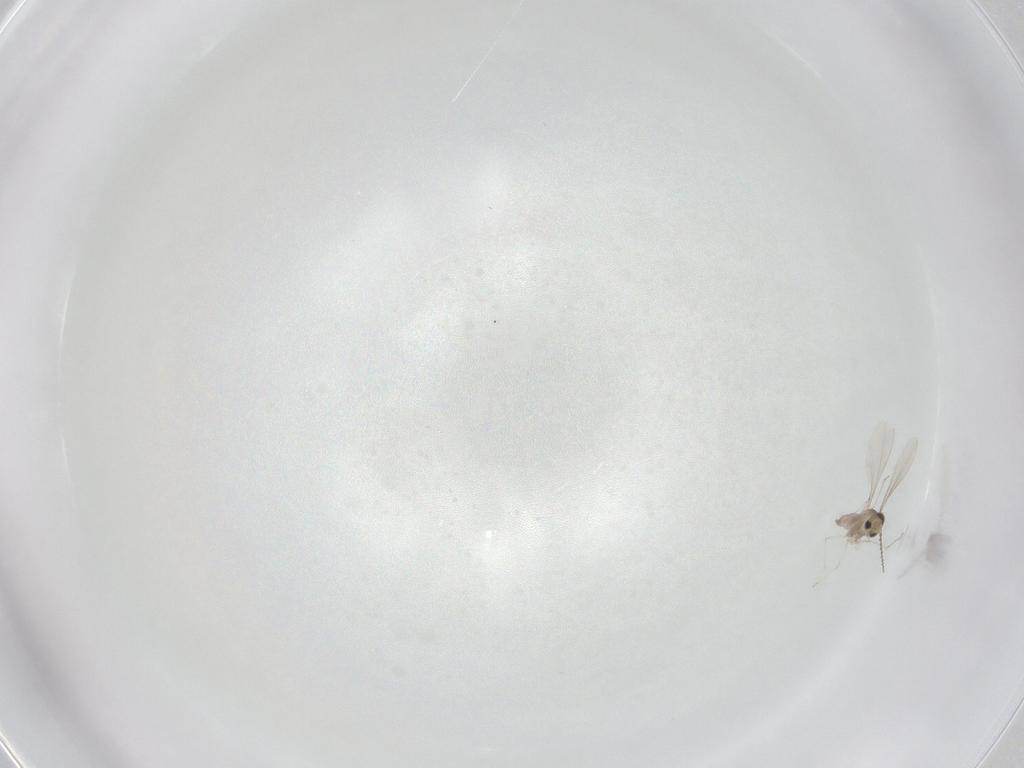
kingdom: Animalia
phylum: Arthropoda
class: Insecta
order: Diptera
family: Cecidomyiidae
